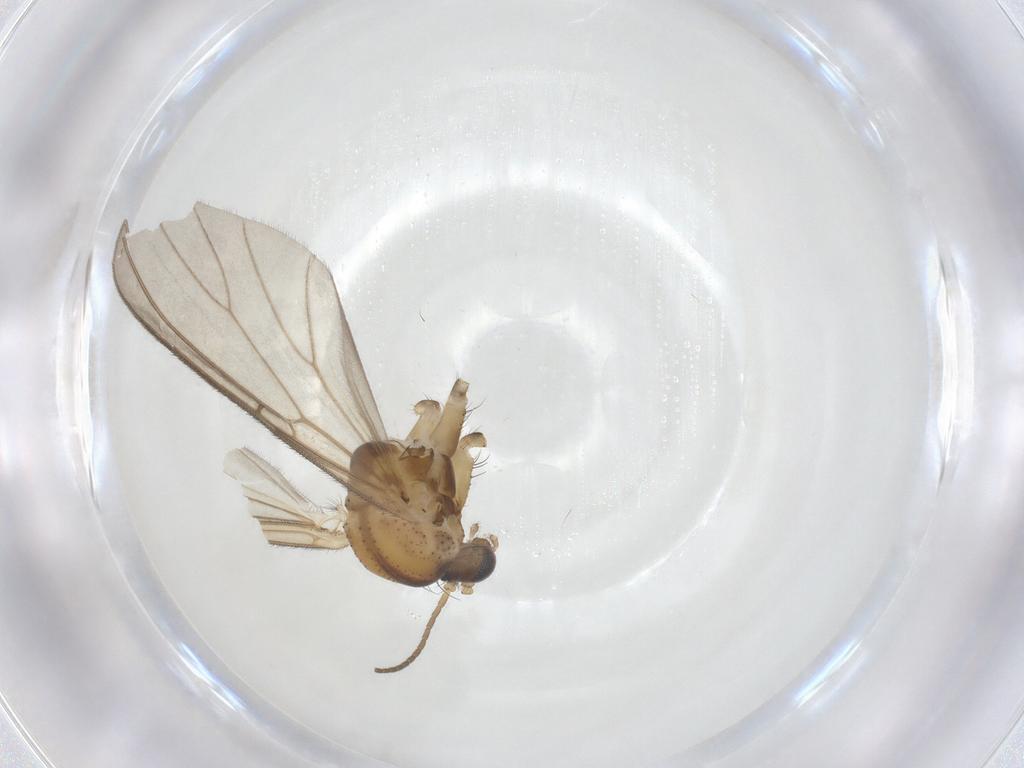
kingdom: Animalia
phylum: Arthropoda
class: Insecta
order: Diptera
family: Mycetophilidae
